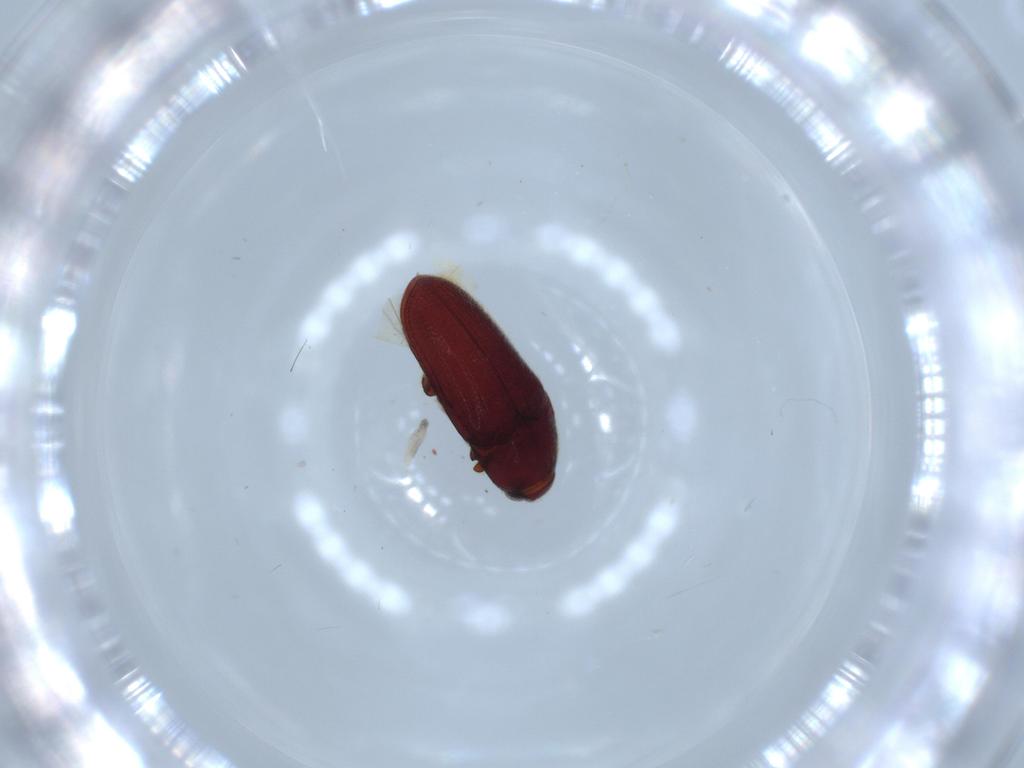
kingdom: Animalia
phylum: Arthropoda
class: Insecta
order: Coleoptera
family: Throscidae
